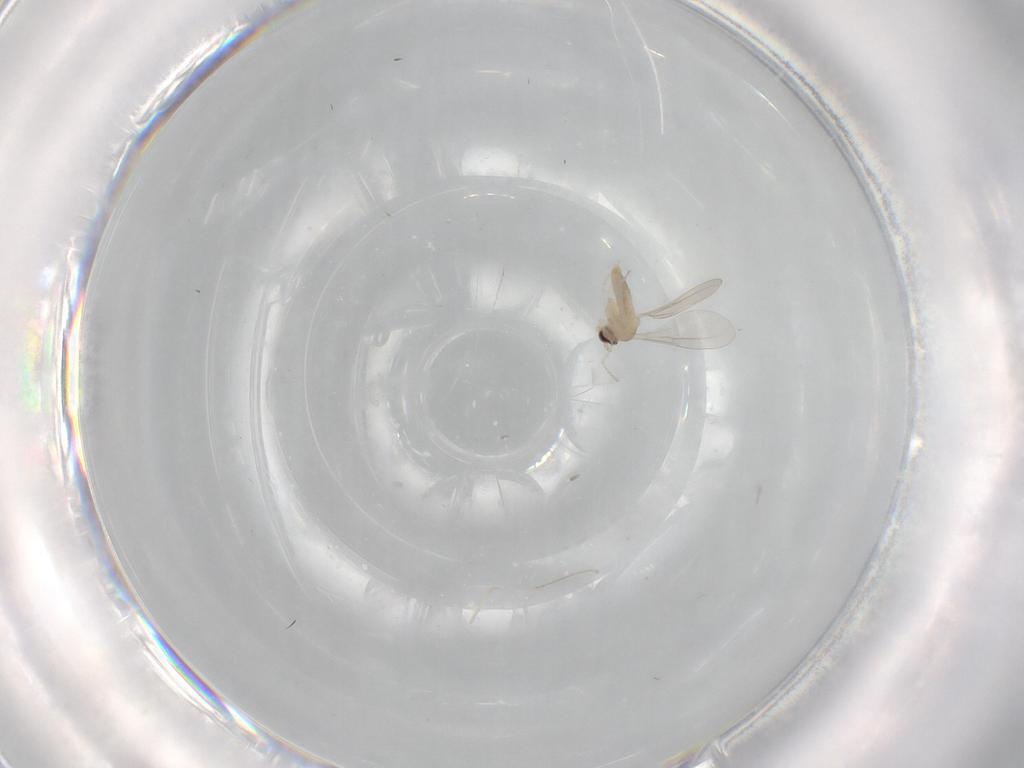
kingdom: Animalia
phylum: Arthropoda
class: Insecta
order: Diptera
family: Cecidomyiidae
